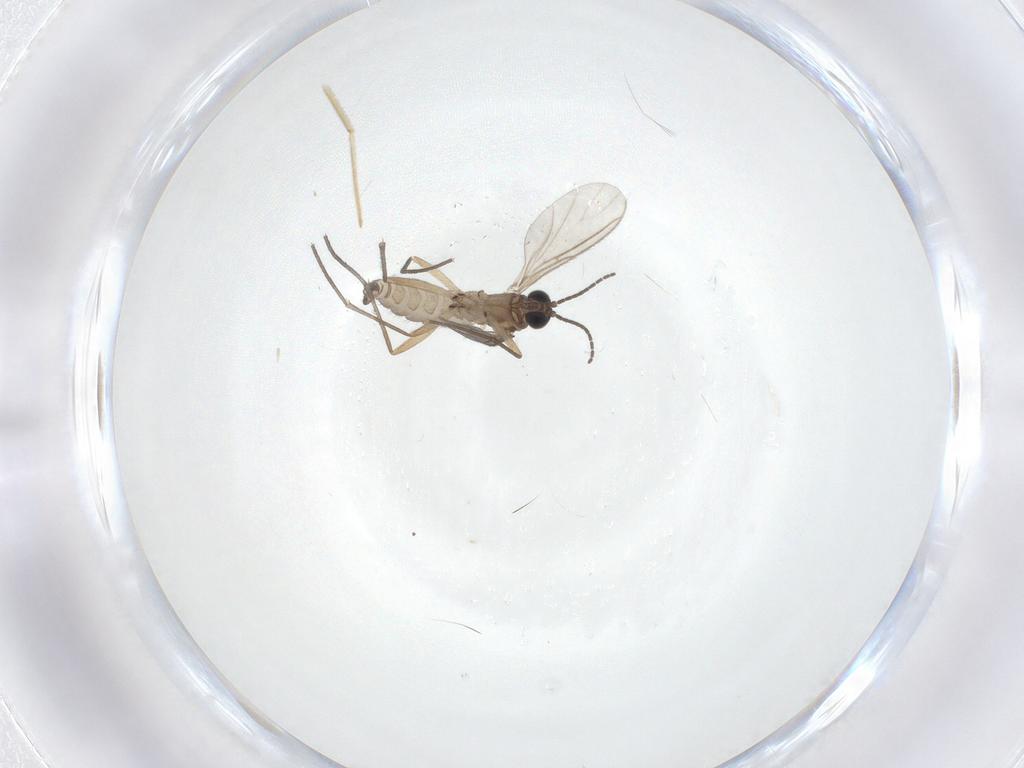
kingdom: Animalia
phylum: Arthropoda
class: Insecta
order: Diptera
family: Sciaridae
